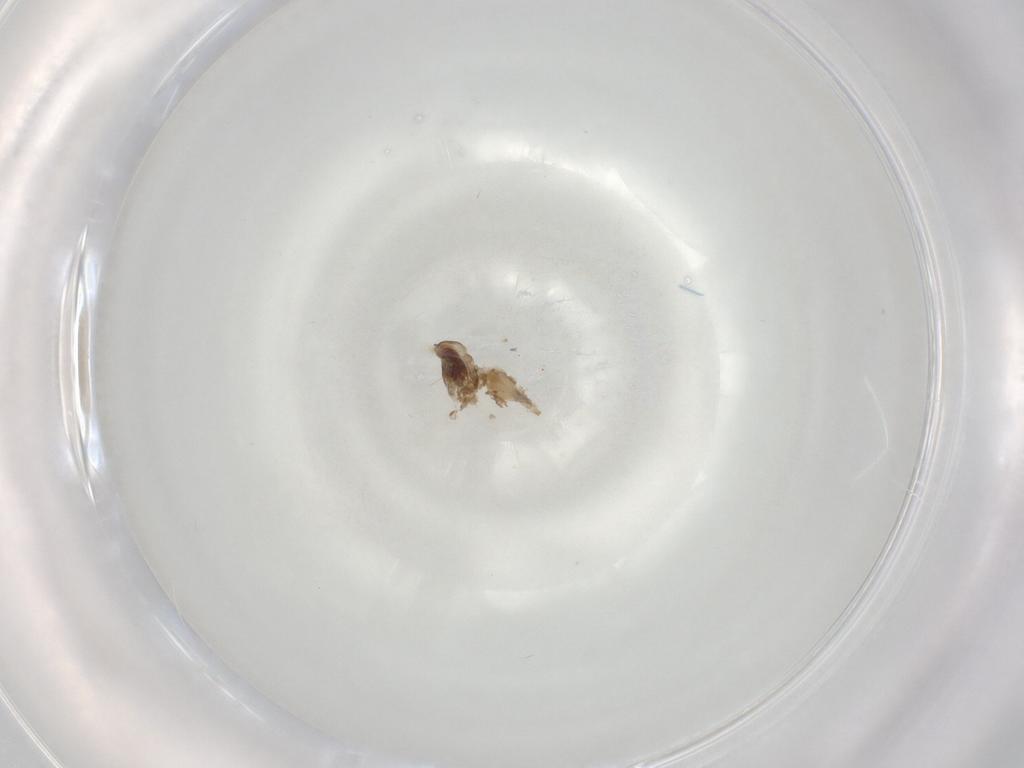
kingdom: Animalia
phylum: Arthropoda
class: Insecta
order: Diptera
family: Cecidomyiidae
